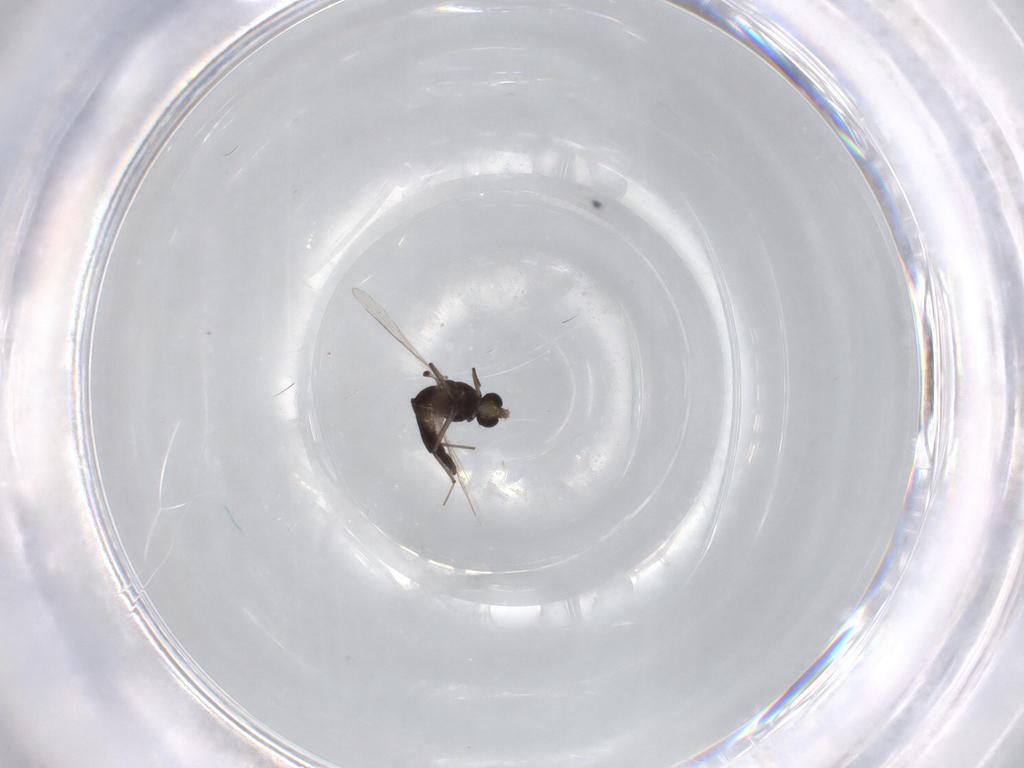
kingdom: Animalia
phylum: Arthropoda
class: Insecta
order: Diptera
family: Chironomidae
